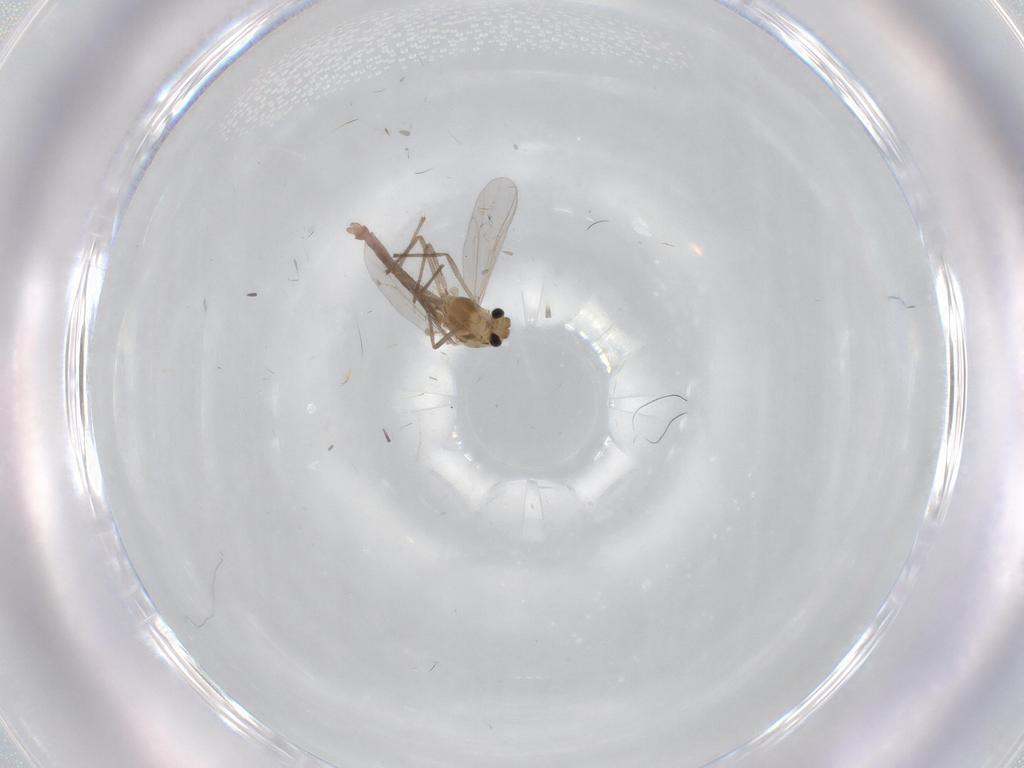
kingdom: Animalia
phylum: Arthropoda
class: Insecta
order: Diptera
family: Chironomidae
